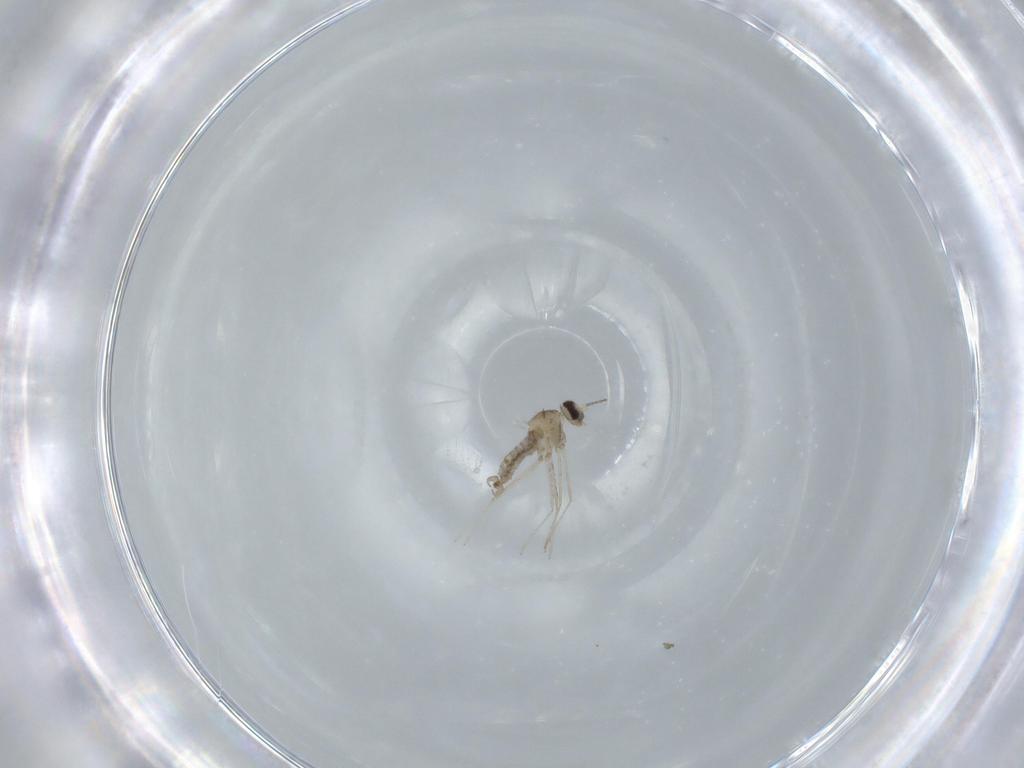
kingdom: Animalia
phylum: Arthropoda
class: Insecta
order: Diptera
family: Cecidomyiidae
